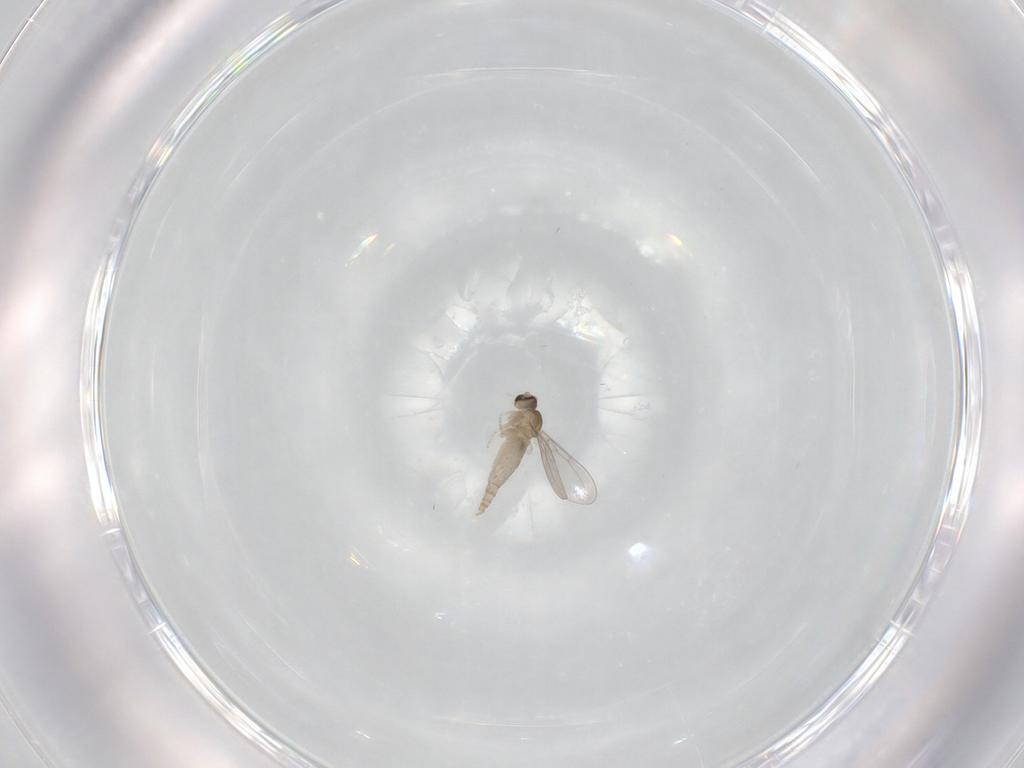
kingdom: Animalia
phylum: Arthropoda
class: Insecta
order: Diptera
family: Cecidomyiidae
